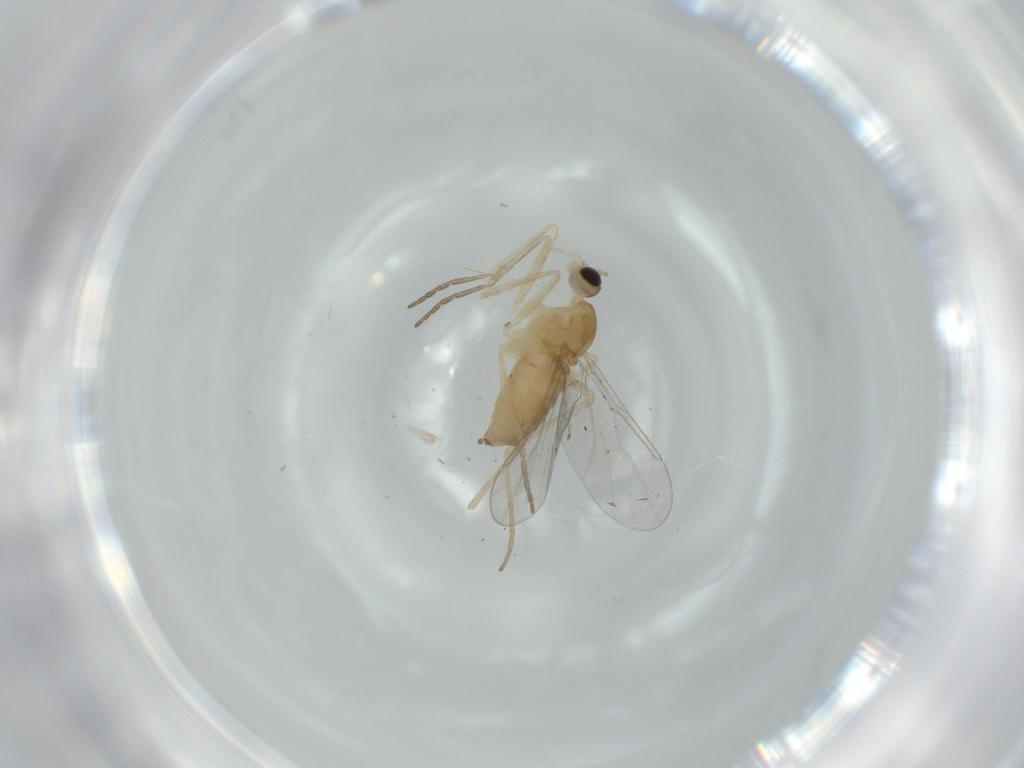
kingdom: Animalia
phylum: Arthropoda
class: Insecta
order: Diptera
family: Cecidomyiidae
